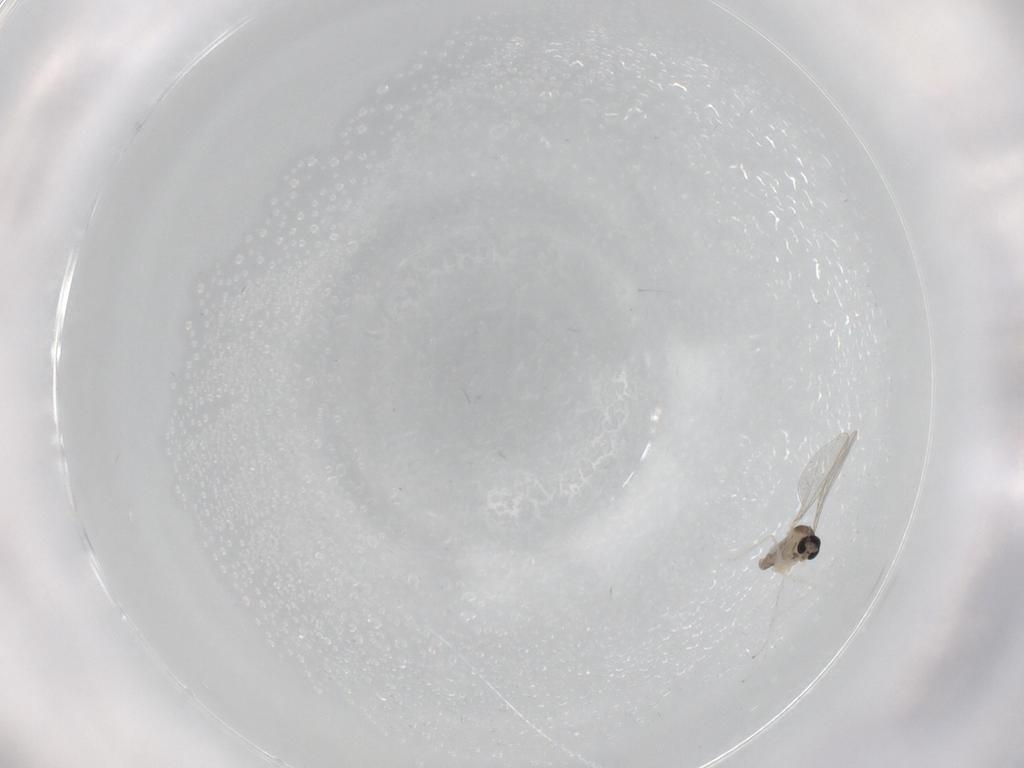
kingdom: Animalia
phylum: Arthropoda
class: Insecta
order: Diptera
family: Cecidomyiidae
